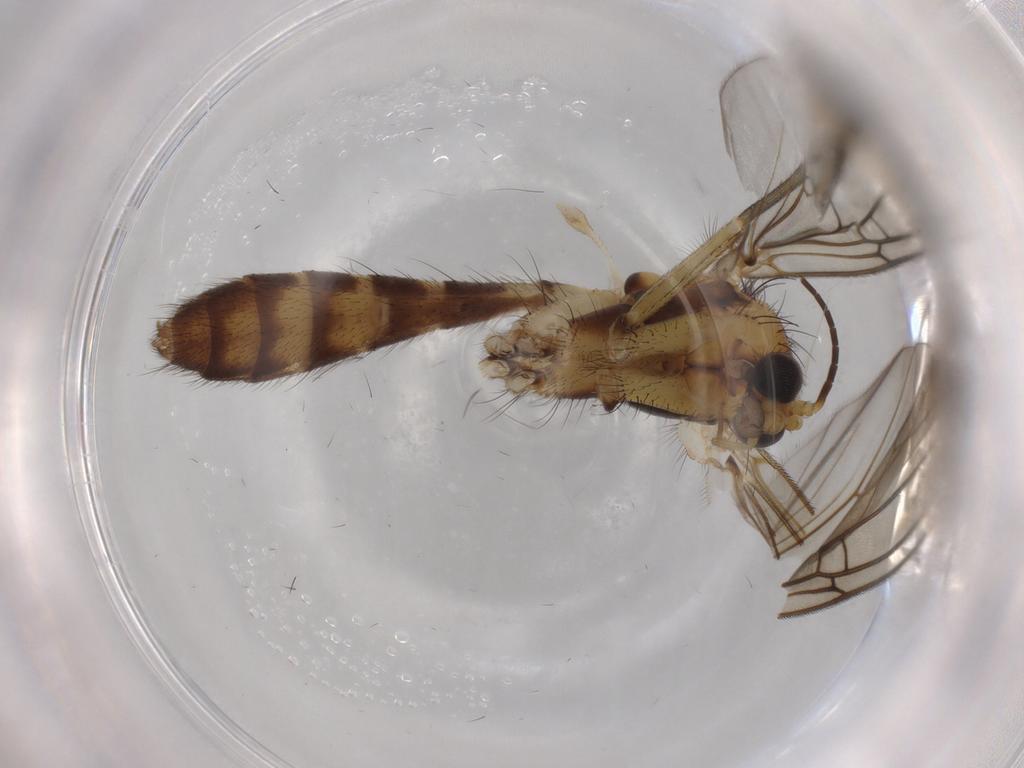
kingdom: Animalia
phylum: Arthropoda
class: Insecta
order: Diptera
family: Mycetophilidae
